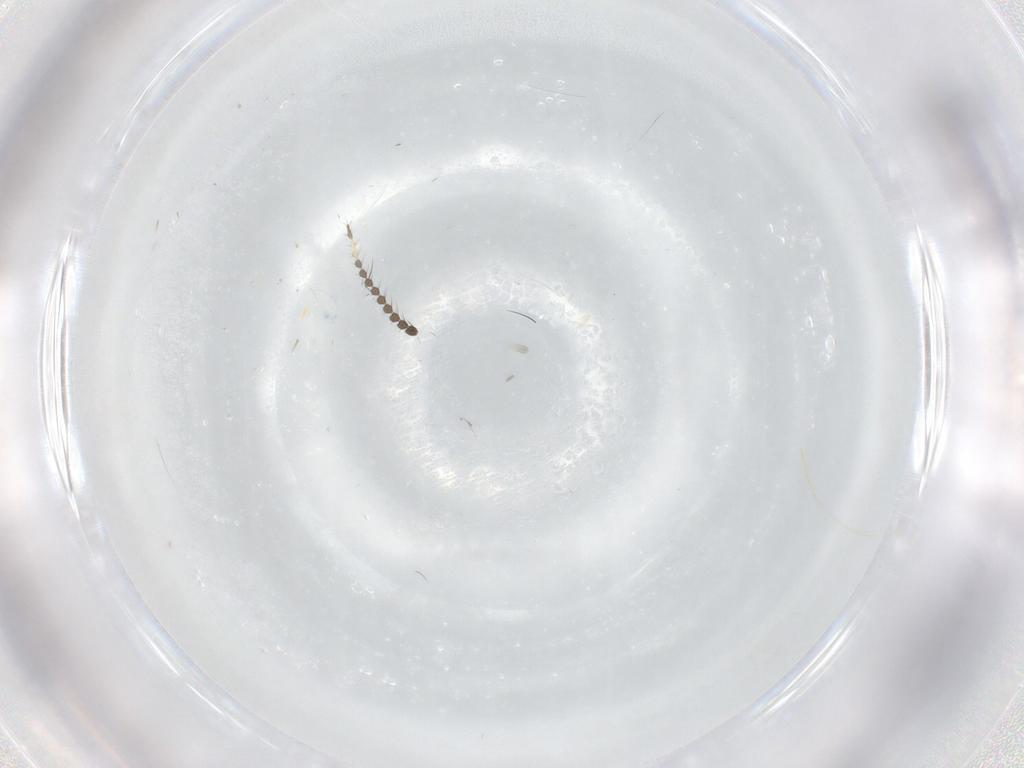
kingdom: Animalia
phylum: Arthropoda
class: Insecta
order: Diptera
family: Limoniidae
